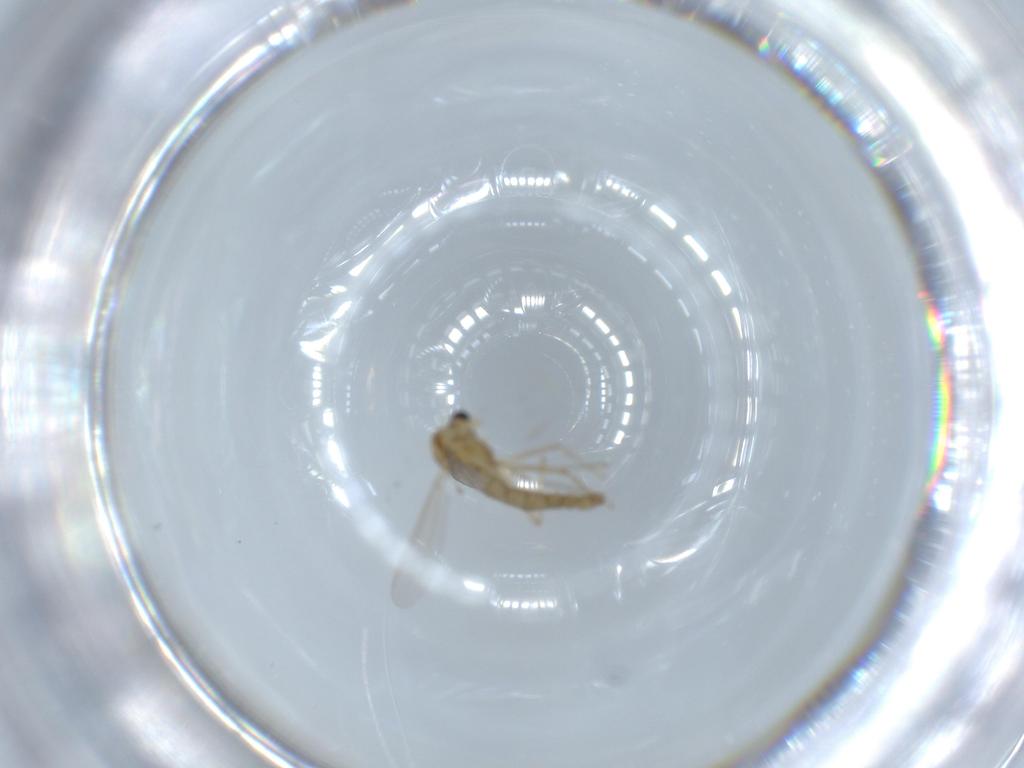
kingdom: Animalia
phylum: Arthropoda
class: Insecta
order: Diptera
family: Chironomidae
